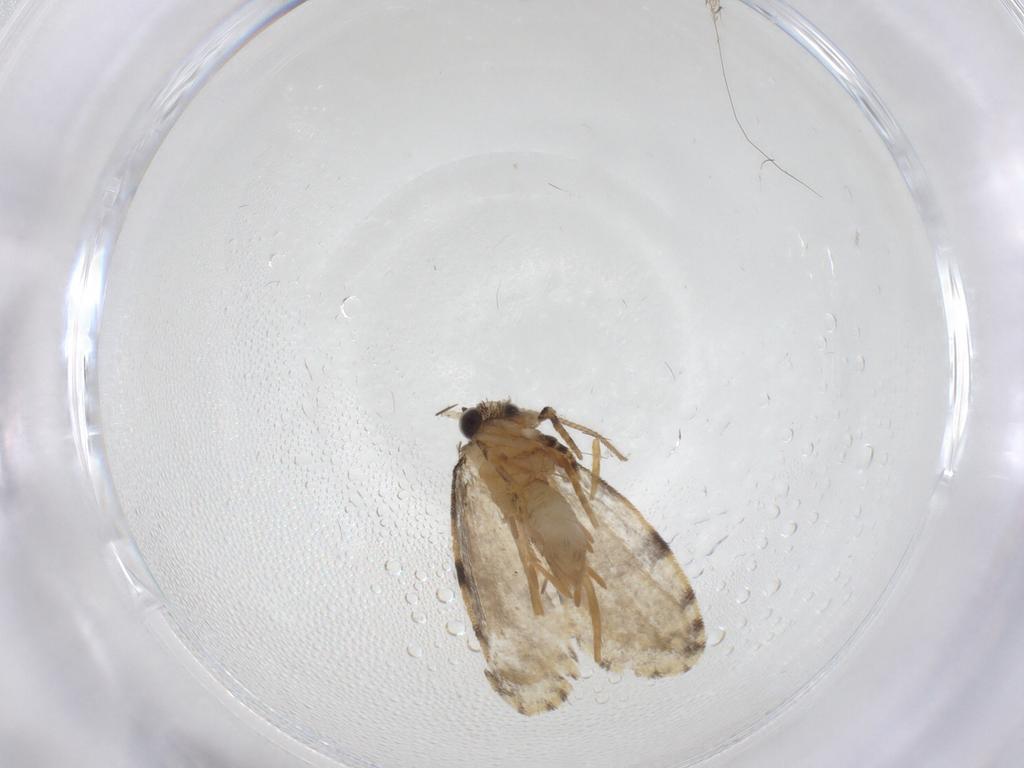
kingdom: Animalia
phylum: Arthropoda
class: Insecta
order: Lepidoptera
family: Psychidae
